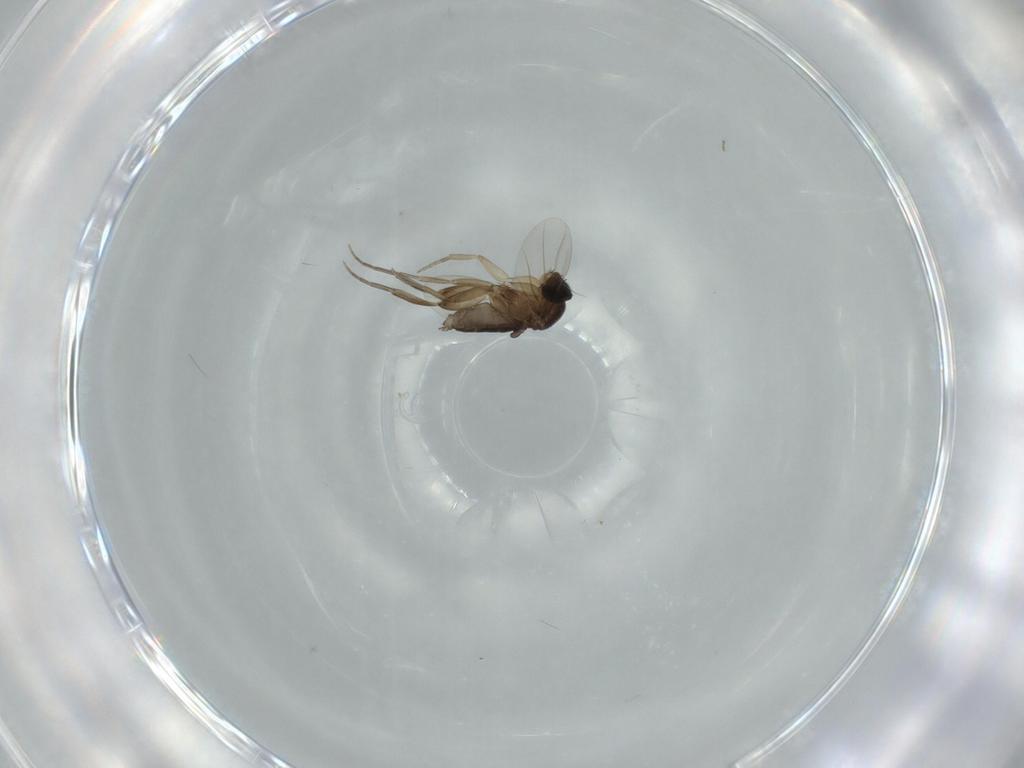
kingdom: Animalia
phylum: Arthropoda
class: Insecta
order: Diptera
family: Phoridae
